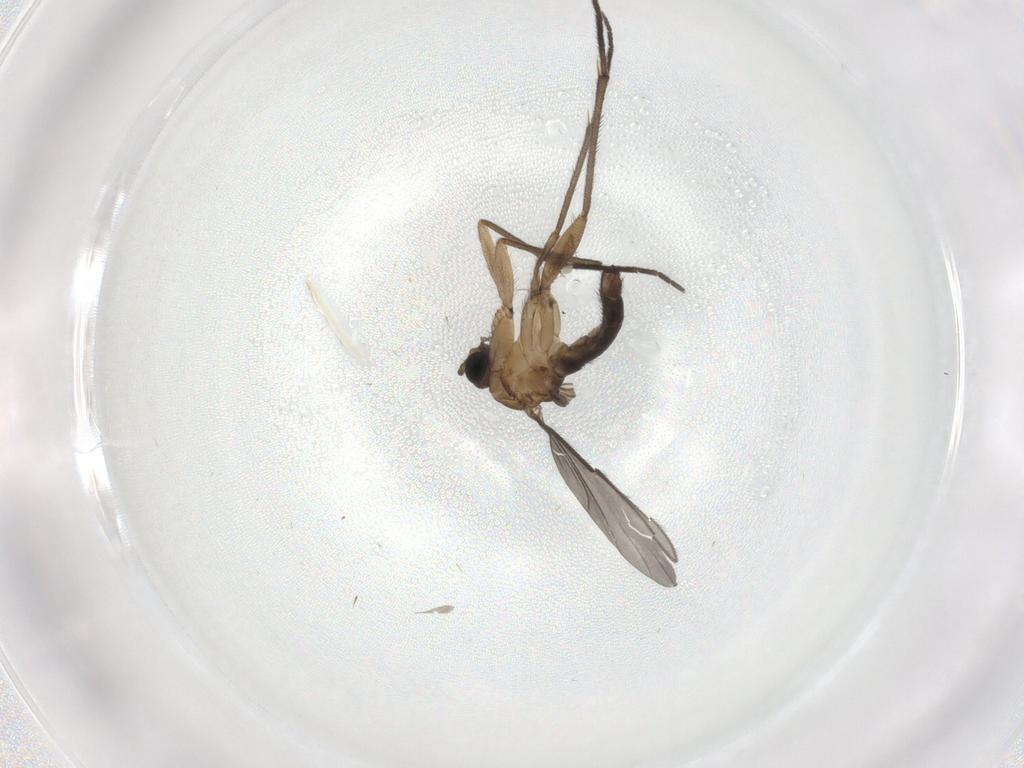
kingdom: Animalia
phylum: Arthropoda
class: Insecta
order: Diptera
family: Sciaridae
